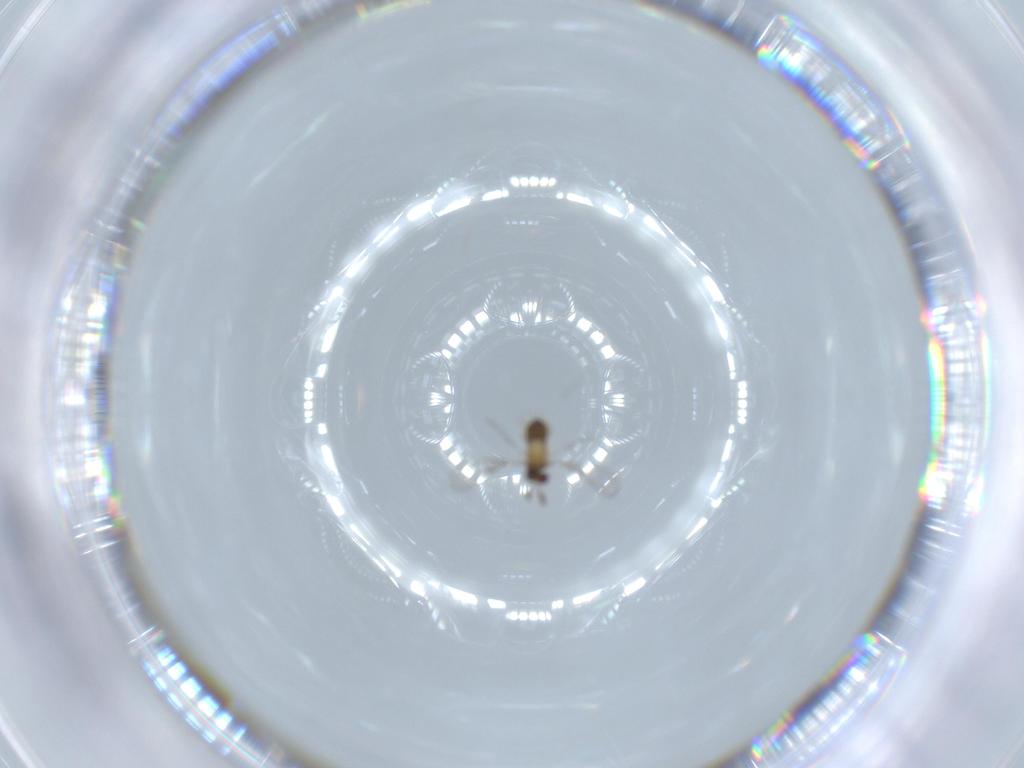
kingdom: Animalia
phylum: Arthropoda
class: Insecta
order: Hymenoptera
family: Trichogrammatidae
